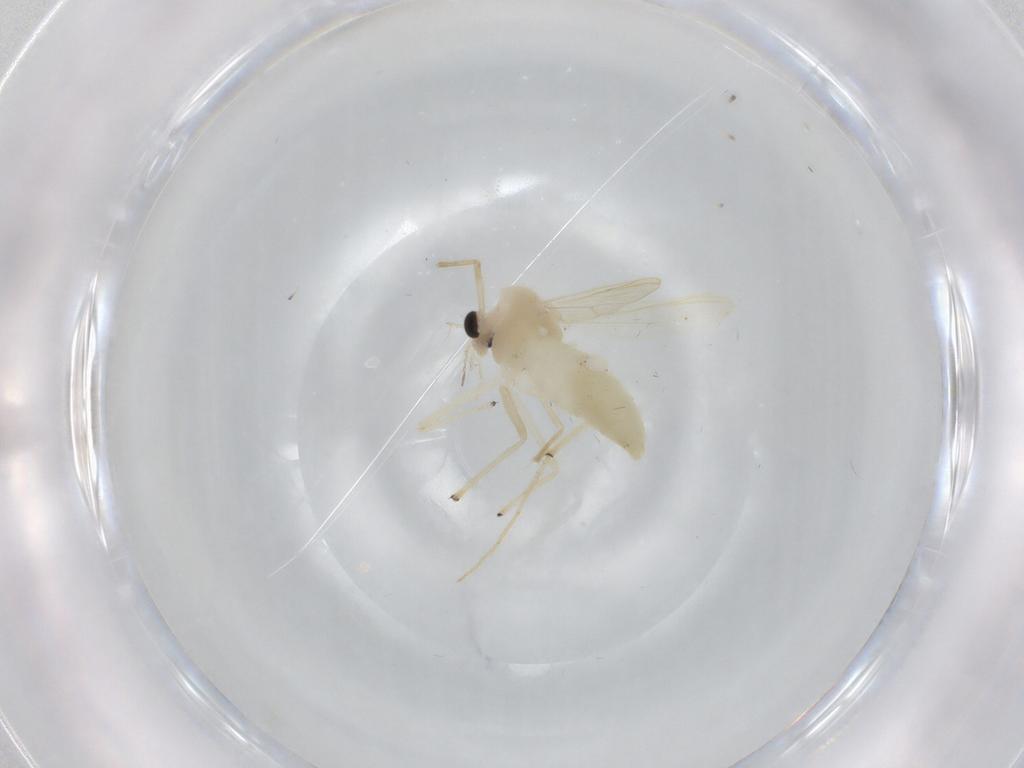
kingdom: Animalia
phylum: Arthropoda
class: Insecta
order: Diptera
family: Chironomidae
